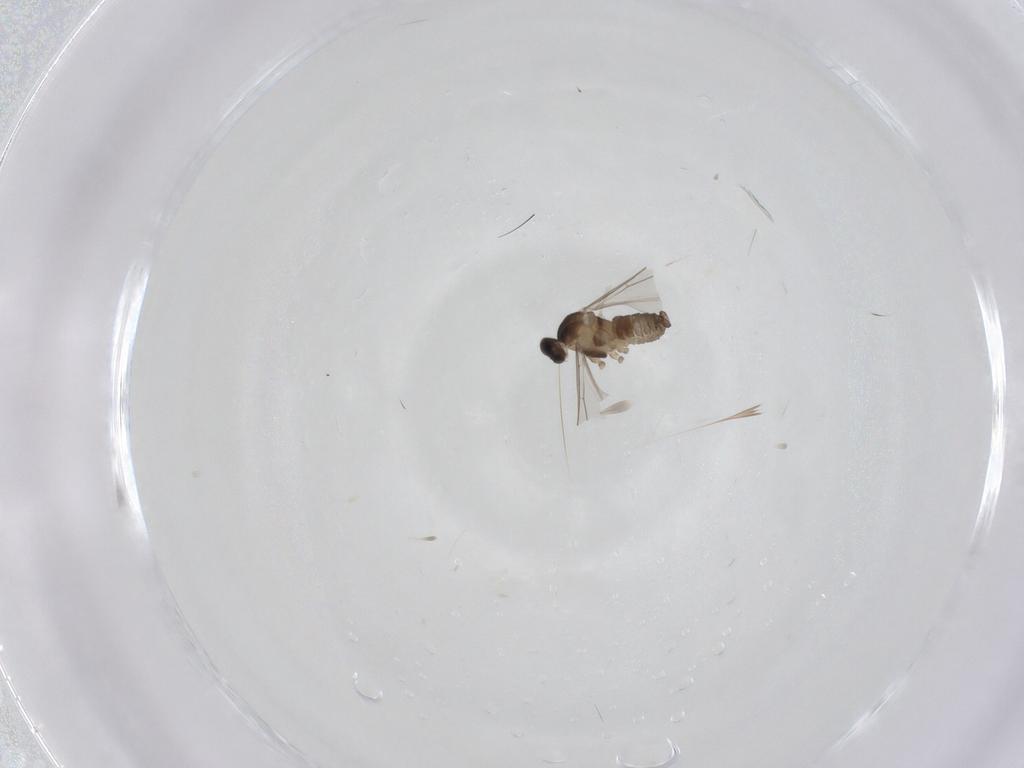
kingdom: Animalia
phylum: Arthropoda
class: Insecta
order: Diptera
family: Cecidomyiidae
